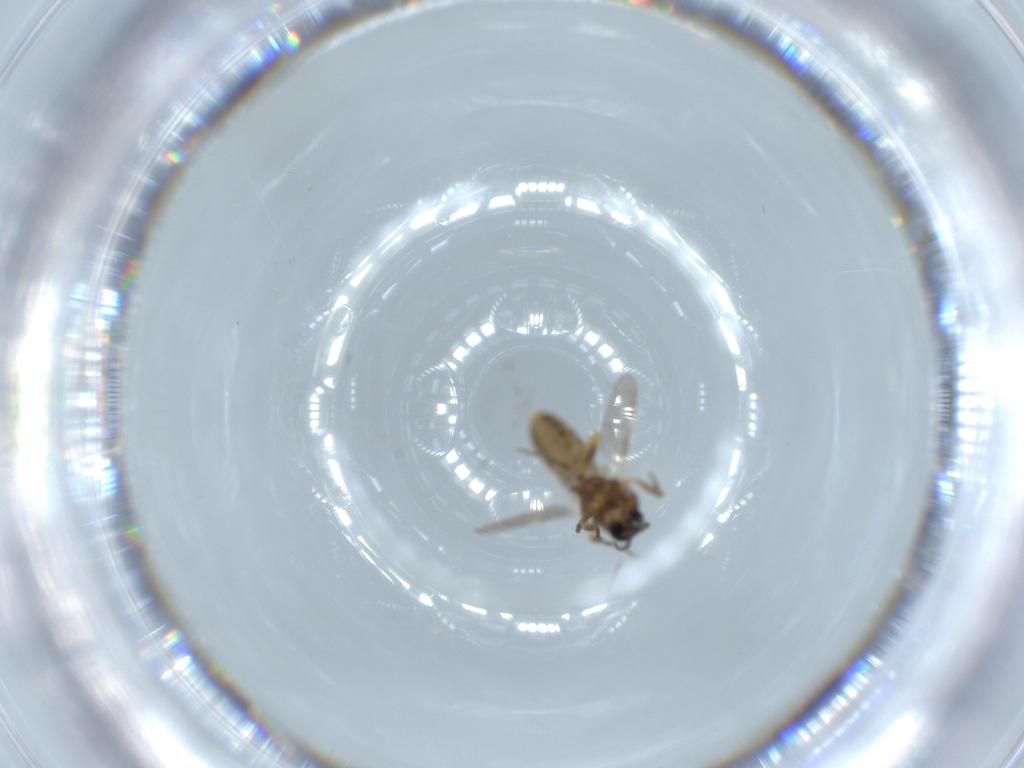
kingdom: Animalia
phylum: Arthropoda
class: Insecta
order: Diptera
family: Ceratopogonidae
